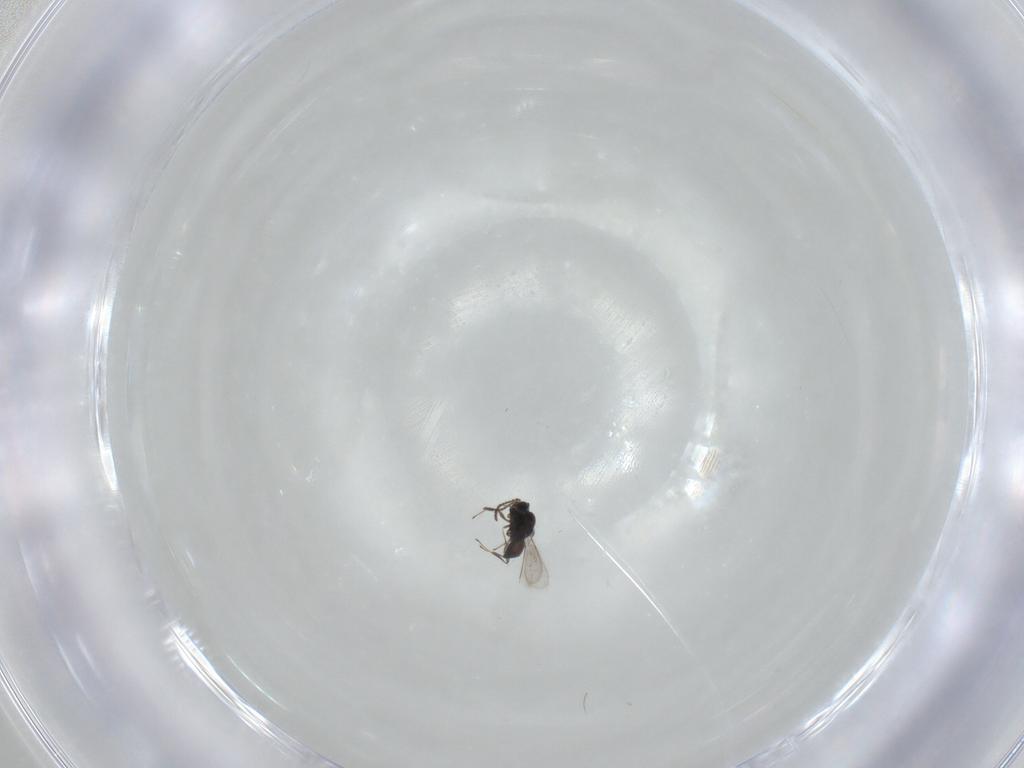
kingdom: Animalia
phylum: Arthropoda
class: Insecta
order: Hymenoptera
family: Scelionidae
